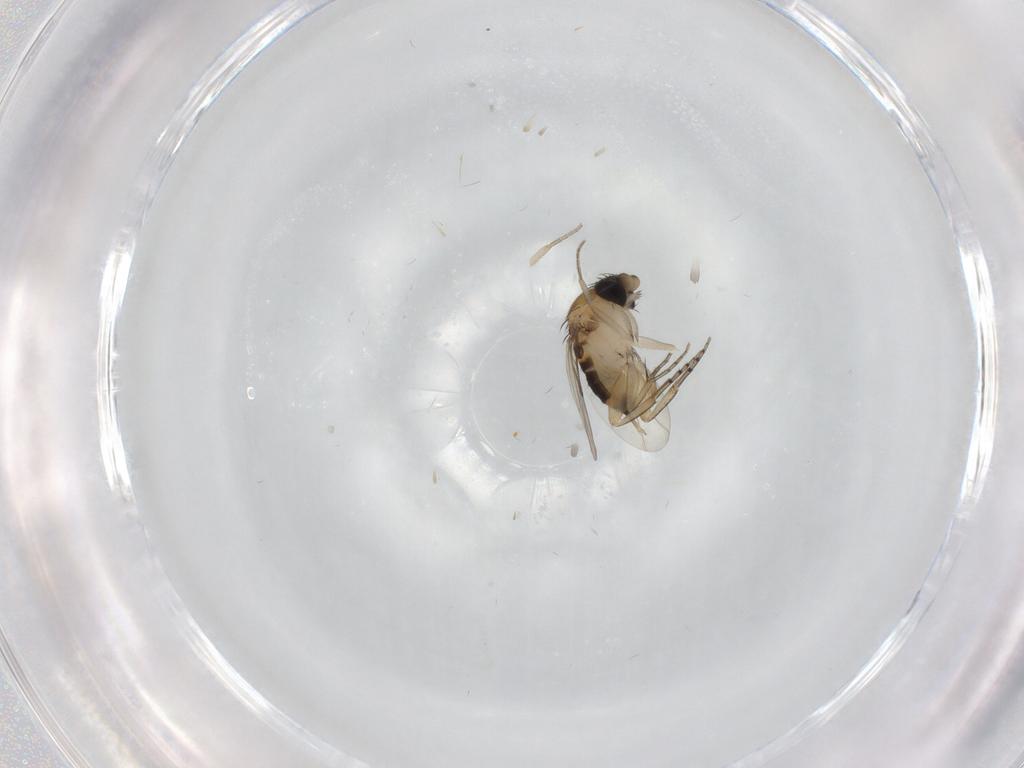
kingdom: Animalia
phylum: Arthropoda
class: Insecta
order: Diptera
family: Phoridae
